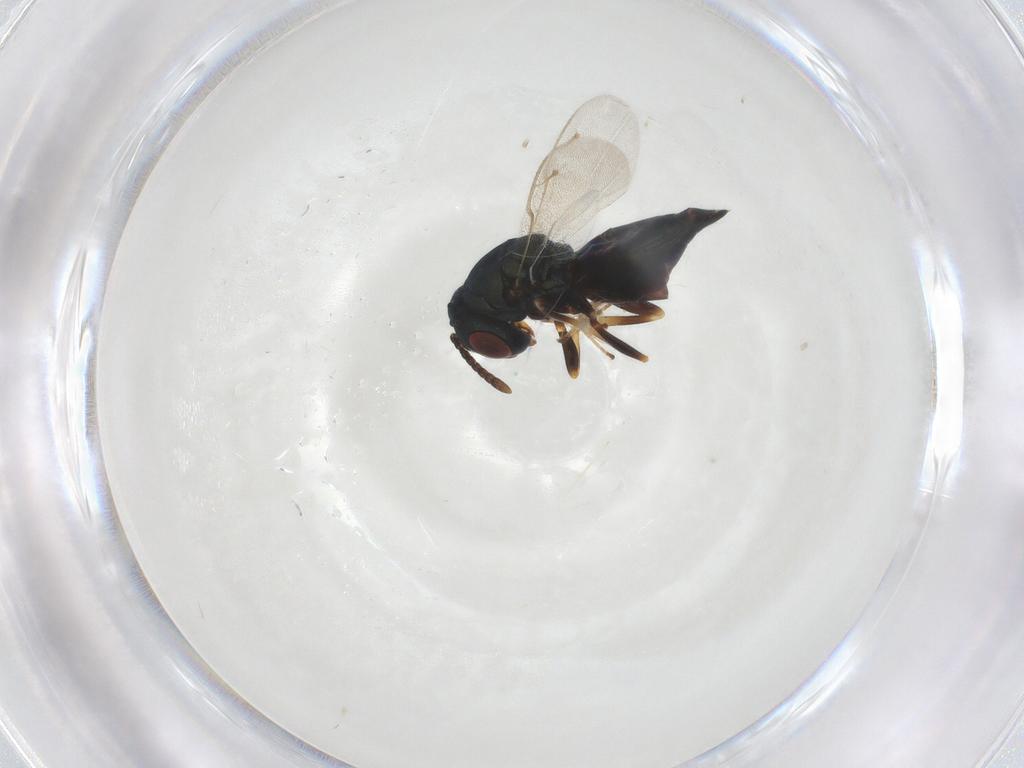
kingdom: Animalia
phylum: Arthropoda
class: Insecta
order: Hymenoptera
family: Pteromalidae
